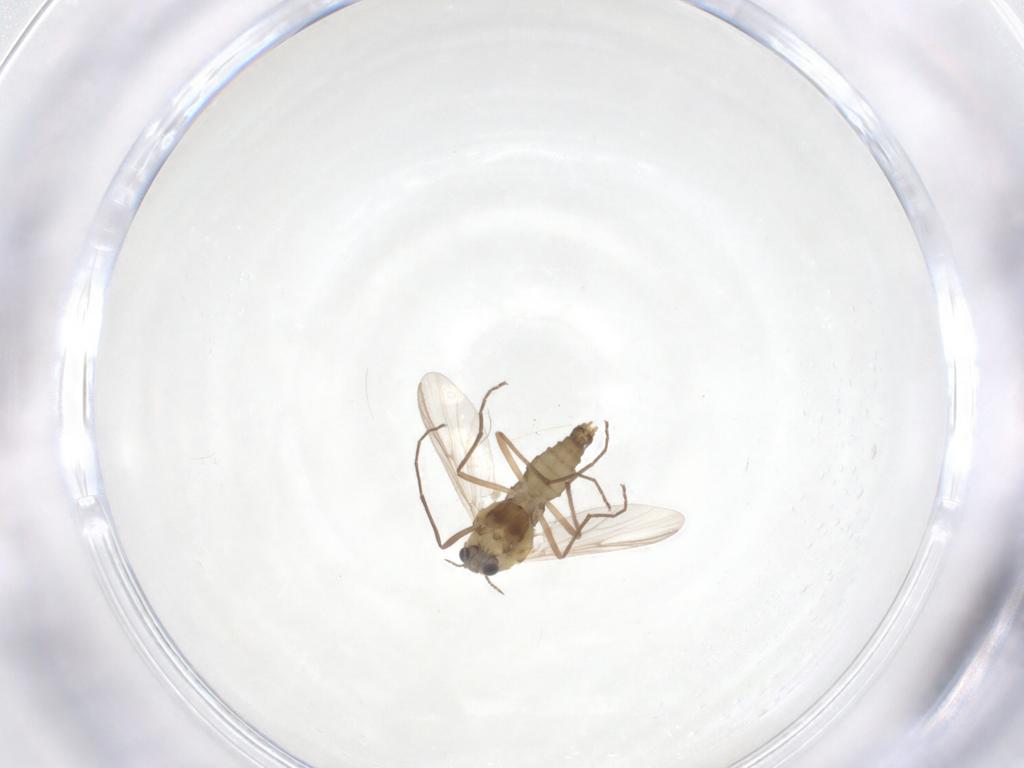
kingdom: Animalia
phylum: Arthropoda
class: Insecta
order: Diptera
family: Chironomidae
